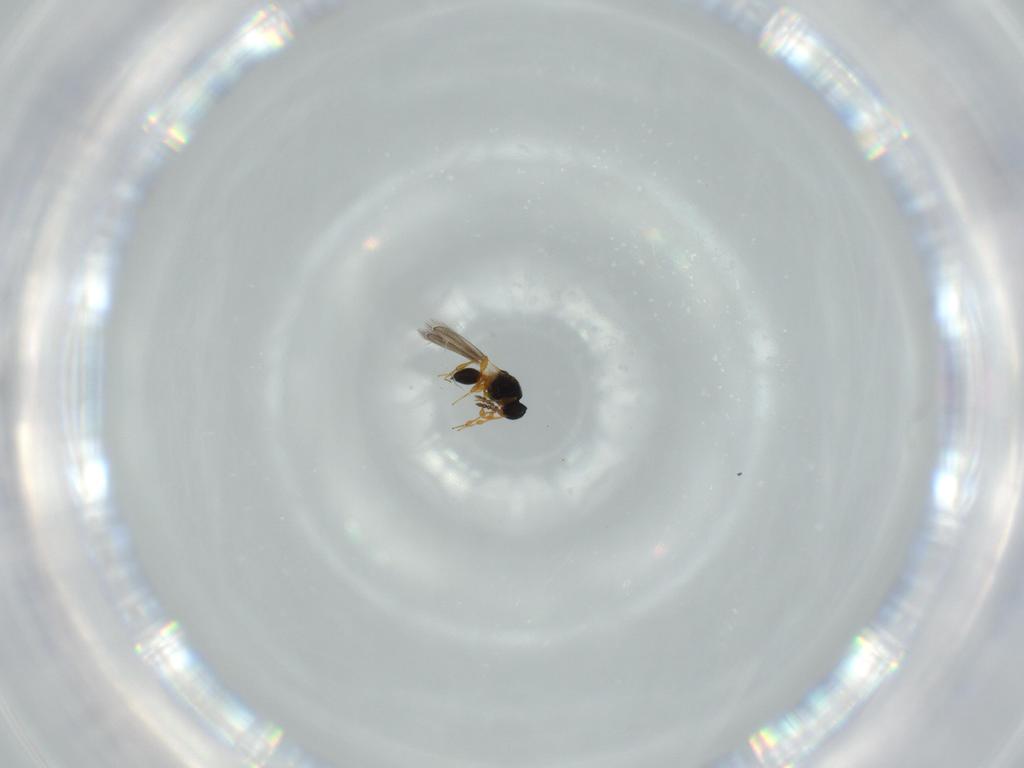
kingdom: Animalia
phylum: Arthropoda
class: Insecta
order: Hymenoptera
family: Platygastridae
